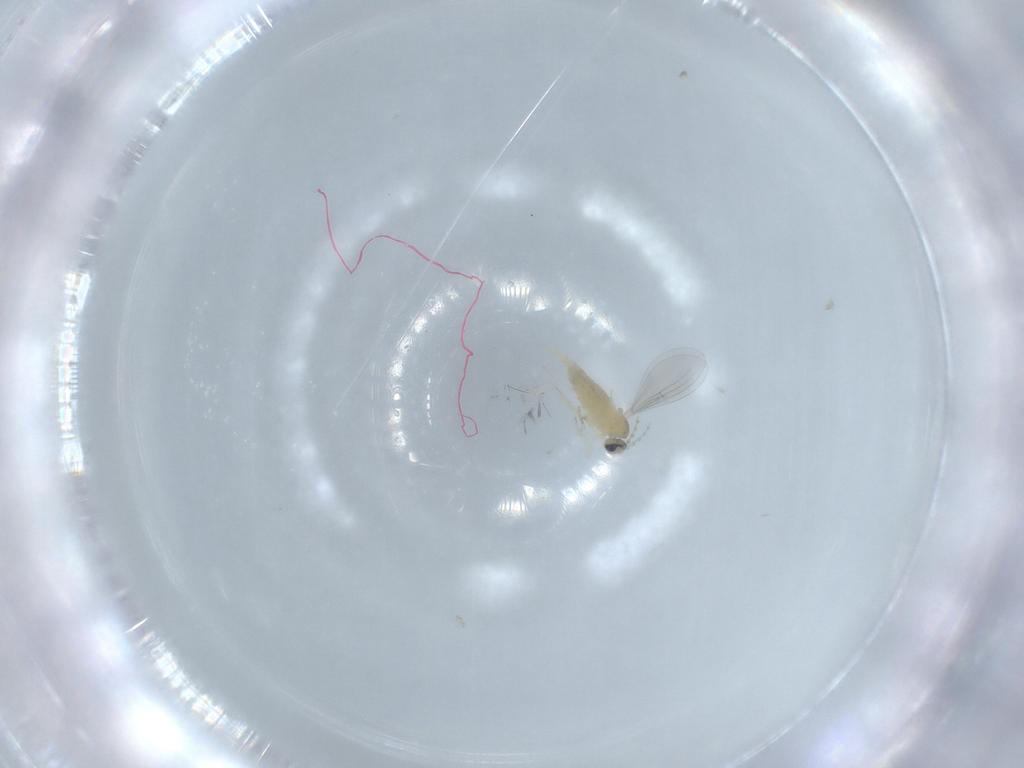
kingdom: Animalia
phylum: Arthropoda
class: Insecta
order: Diptera
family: Cecidomyiidae
